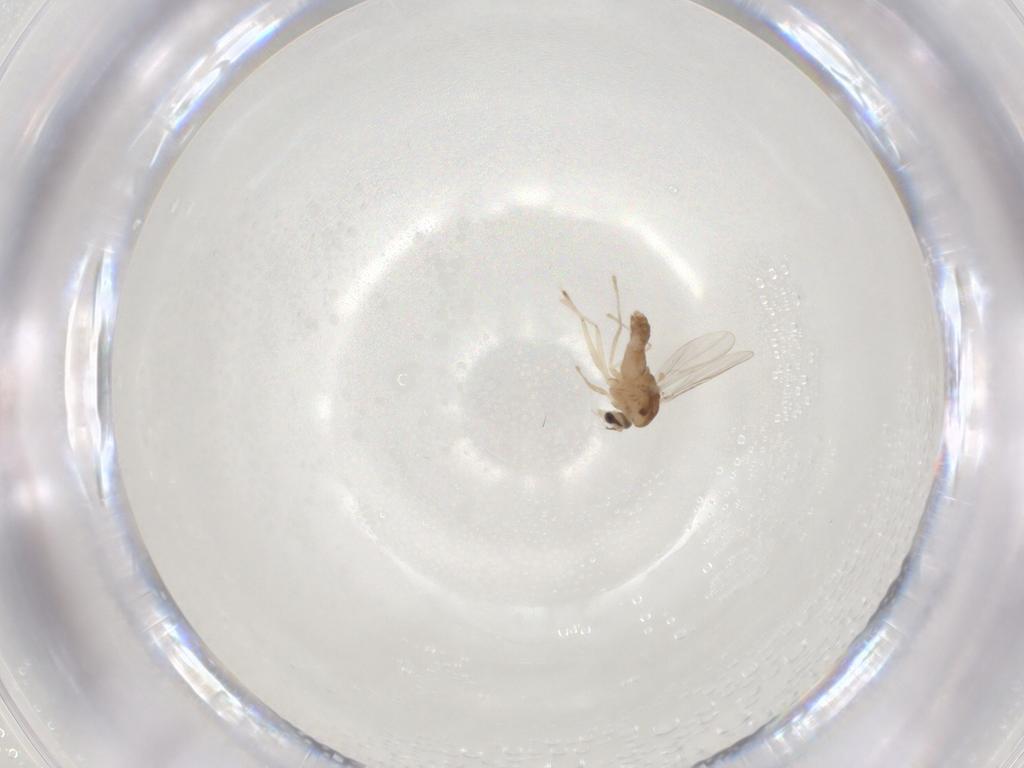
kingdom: Animalia
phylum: Arthropoda
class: Insecta
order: Diptera
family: Chironomidae
